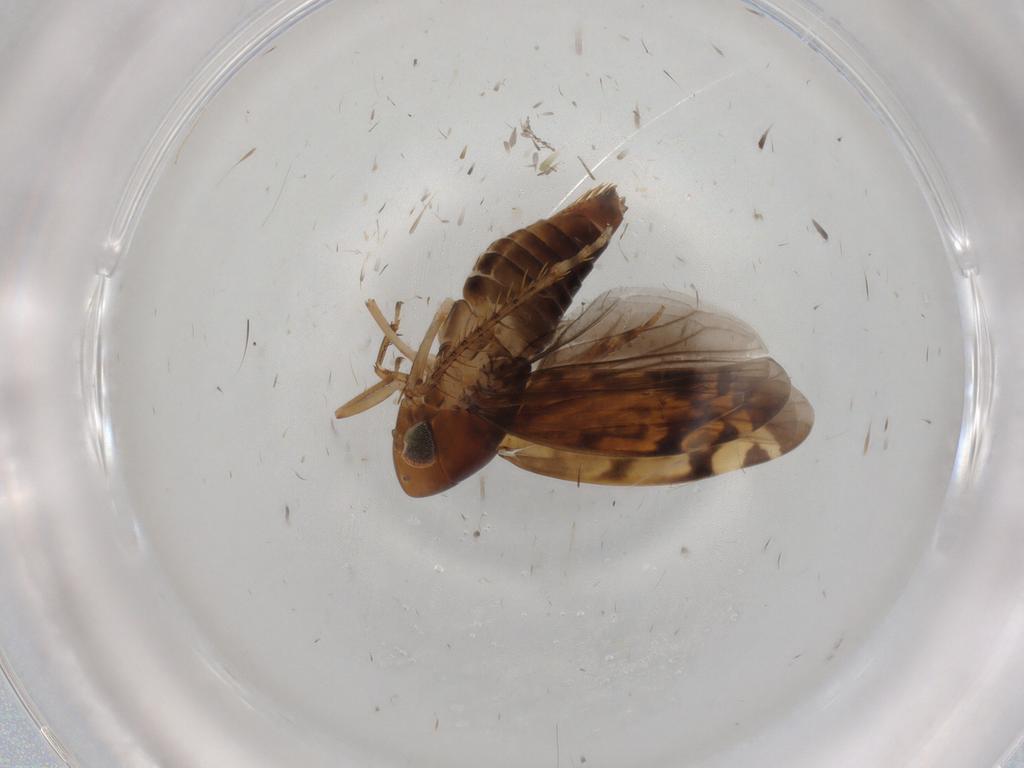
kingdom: Animalia
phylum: Arthropoda
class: Insecta
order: Hemiptera
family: Cicadellidae
